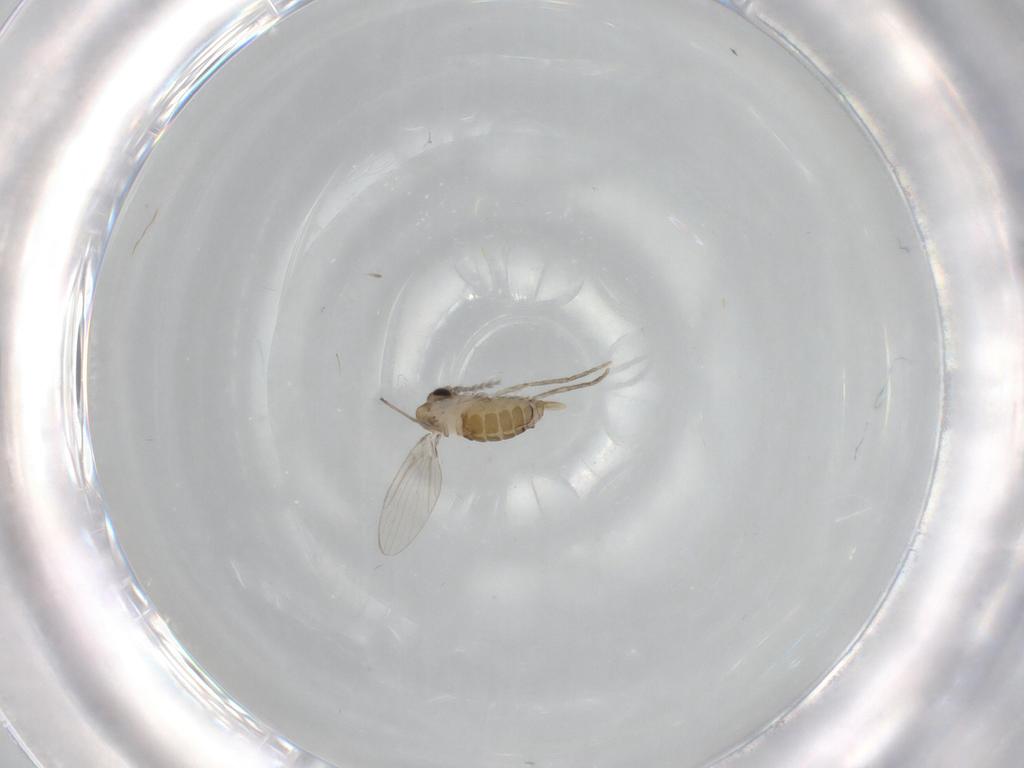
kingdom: Animalia
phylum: Arthropoda
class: Insecta
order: Diptera
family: Psychodidae
